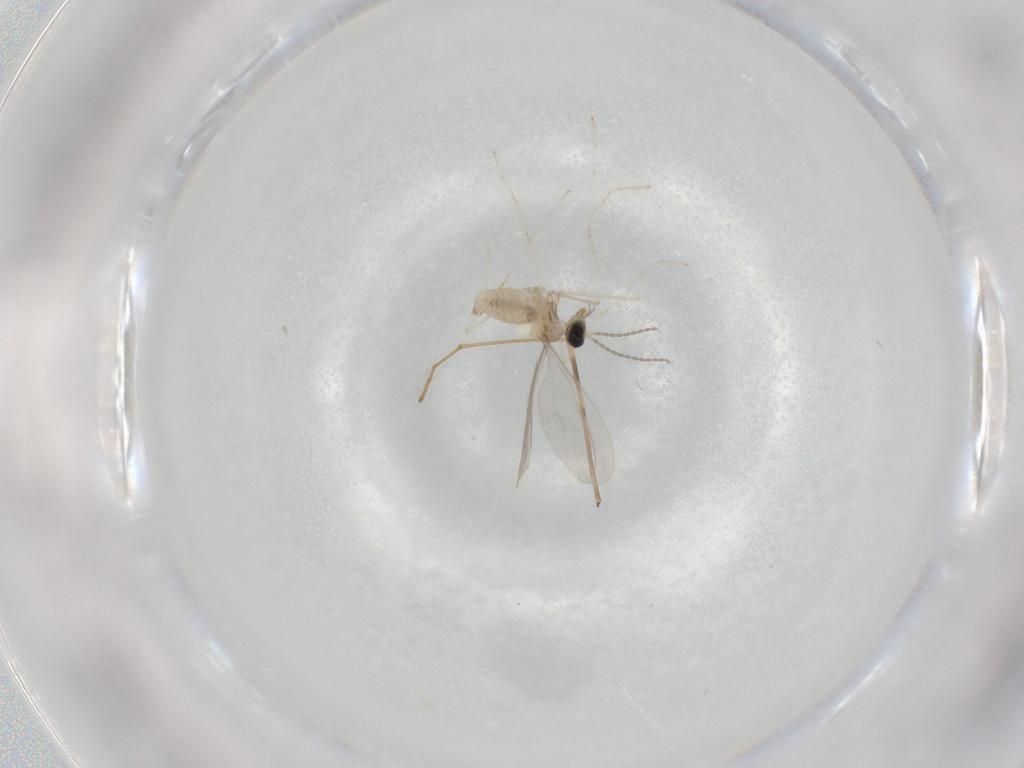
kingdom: Animalia
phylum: Arthropoda
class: Insecta
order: Diptera
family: Limoniidae
